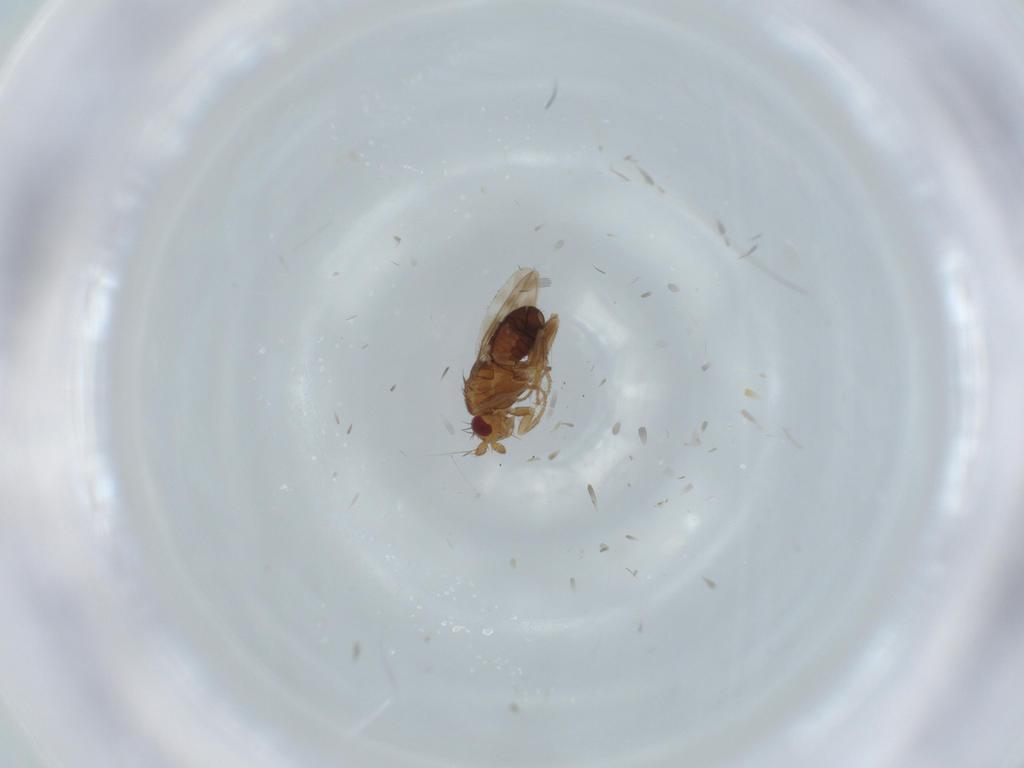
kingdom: Animalia
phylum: Arthropoda
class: Insecta
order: Diptera
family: Sphaeroceridae
